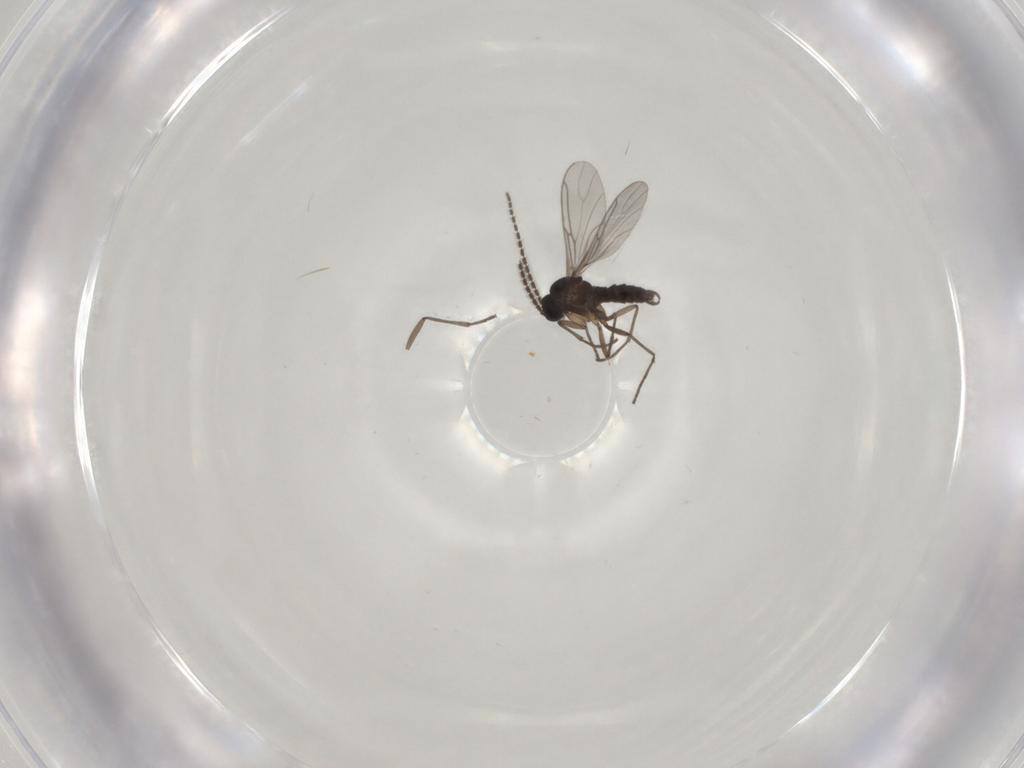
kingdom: Animalia
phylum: Arthropoda
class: Insecta
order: Diptera
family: Sciaridae
